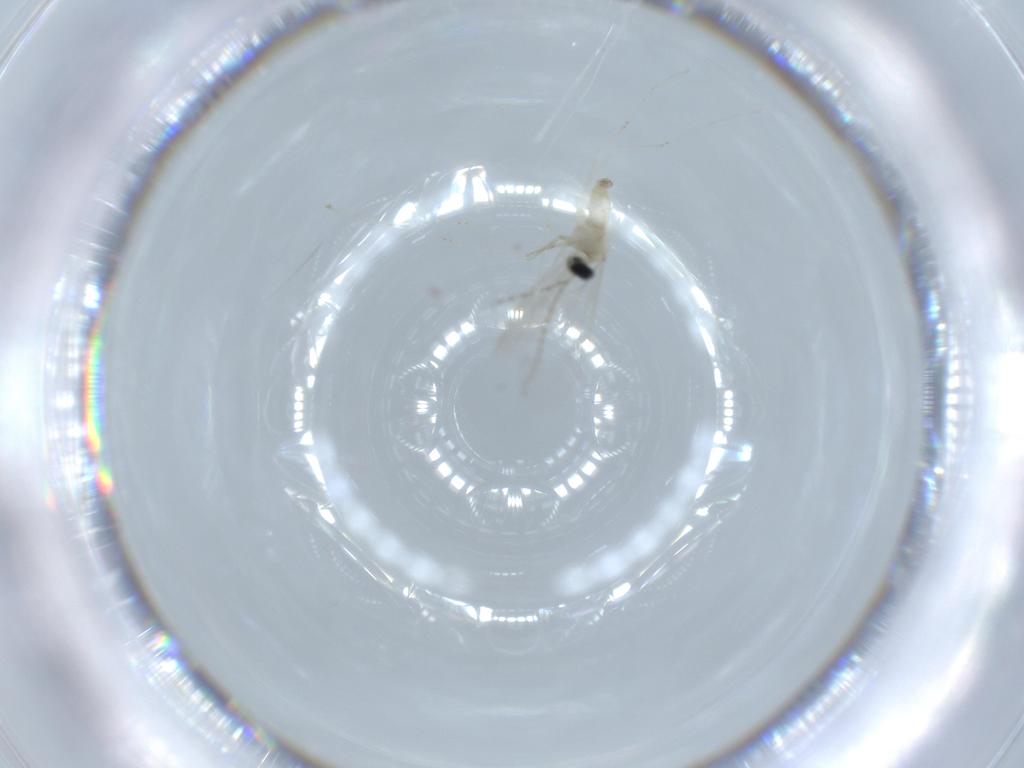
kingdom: Animalia
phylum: Arthropoda
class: Insecta
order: Diptera
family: Cecidomyiidae
